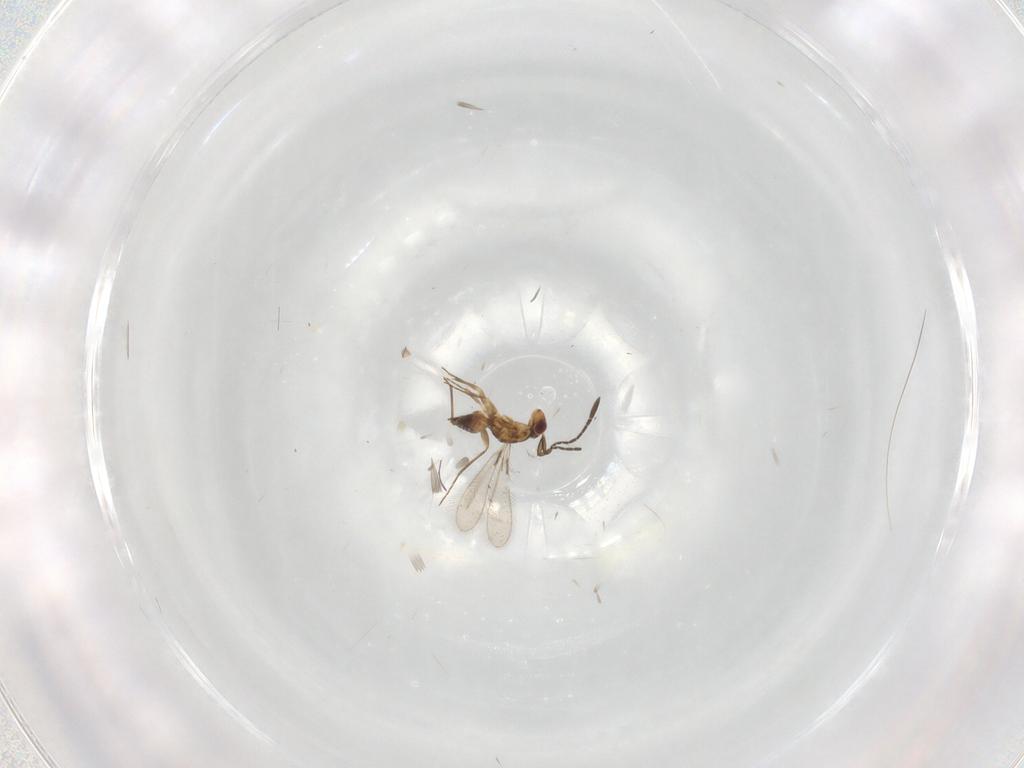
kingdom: Animalia
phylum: Arthropoda
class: Insecta
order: Hymenoptera
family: Mymaridae
